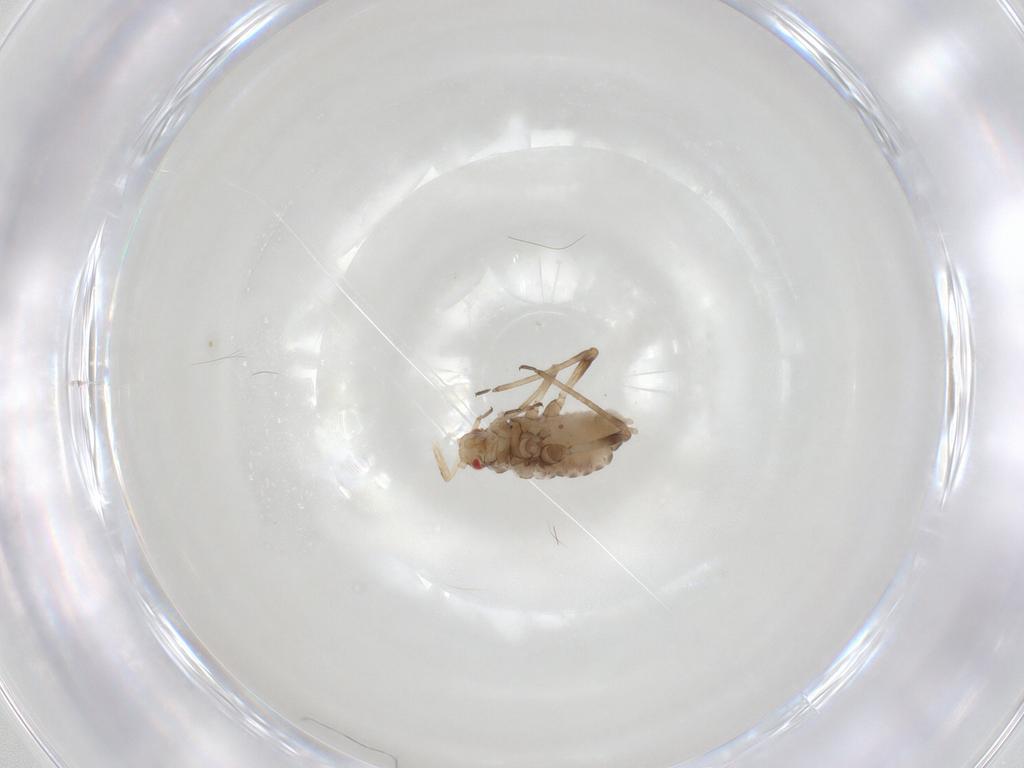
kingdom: Animalia
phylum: Arthropoda
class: Insecta
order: Hemiptera
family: Aphididae
